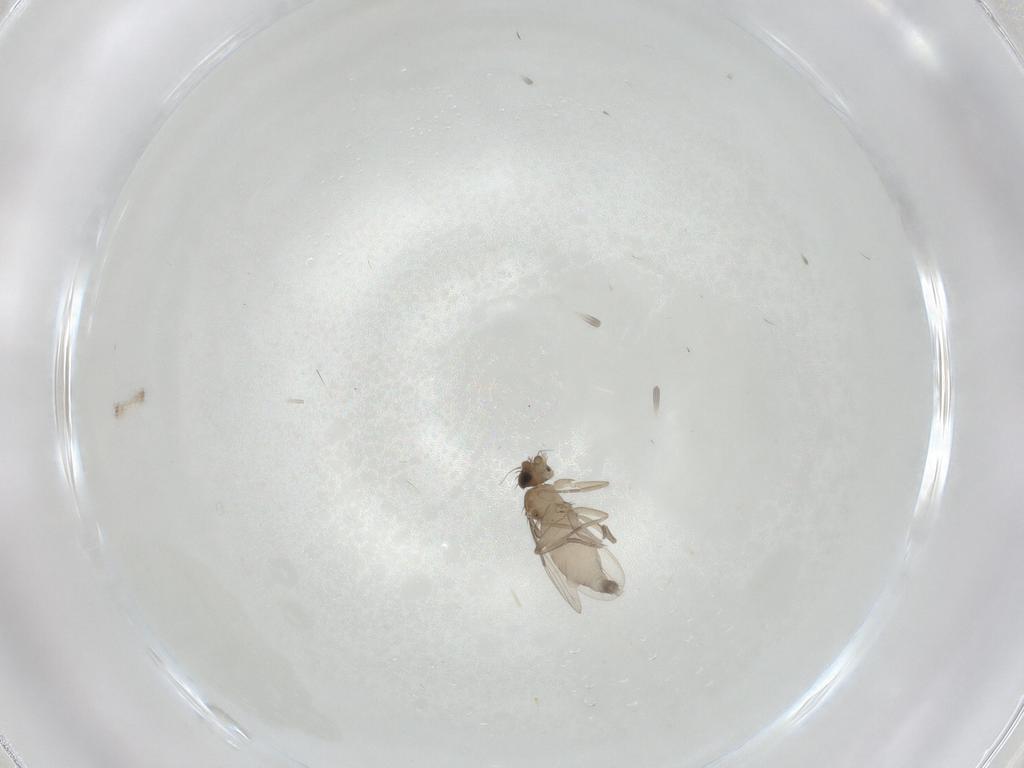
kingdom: Animalia
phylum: Arthropoda
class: Insecta
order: Diptera
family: Phoridae
